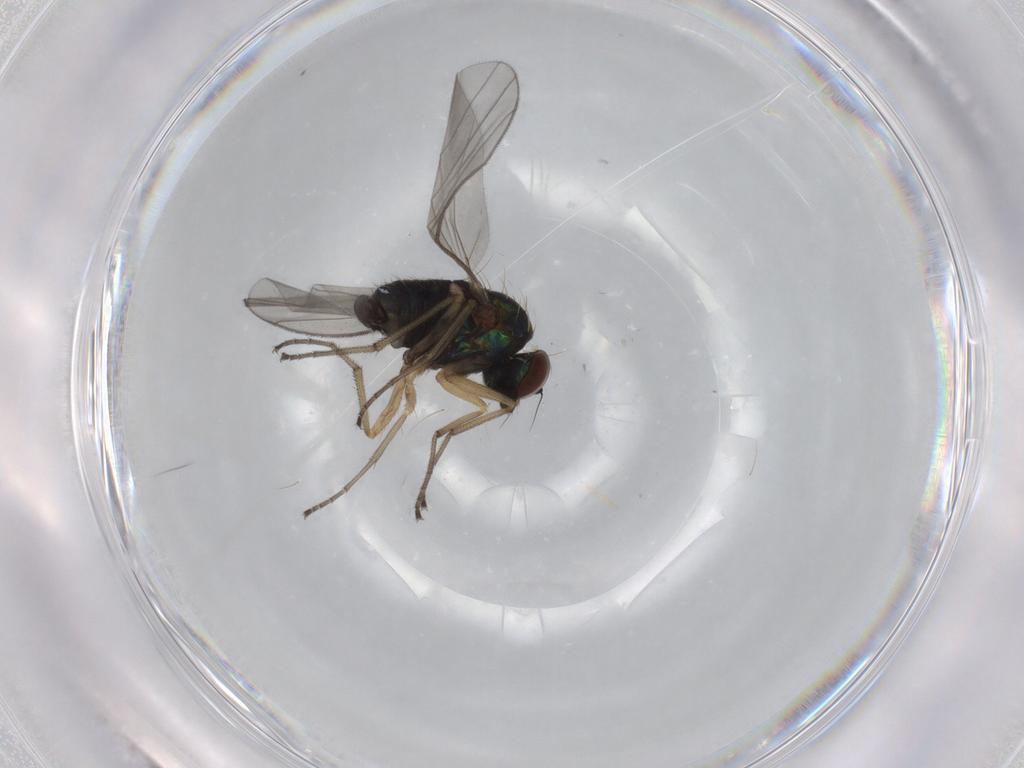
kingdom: Animalia
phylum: Arthropoda
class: Insecta
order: Diptera
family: Dolichopodidae
